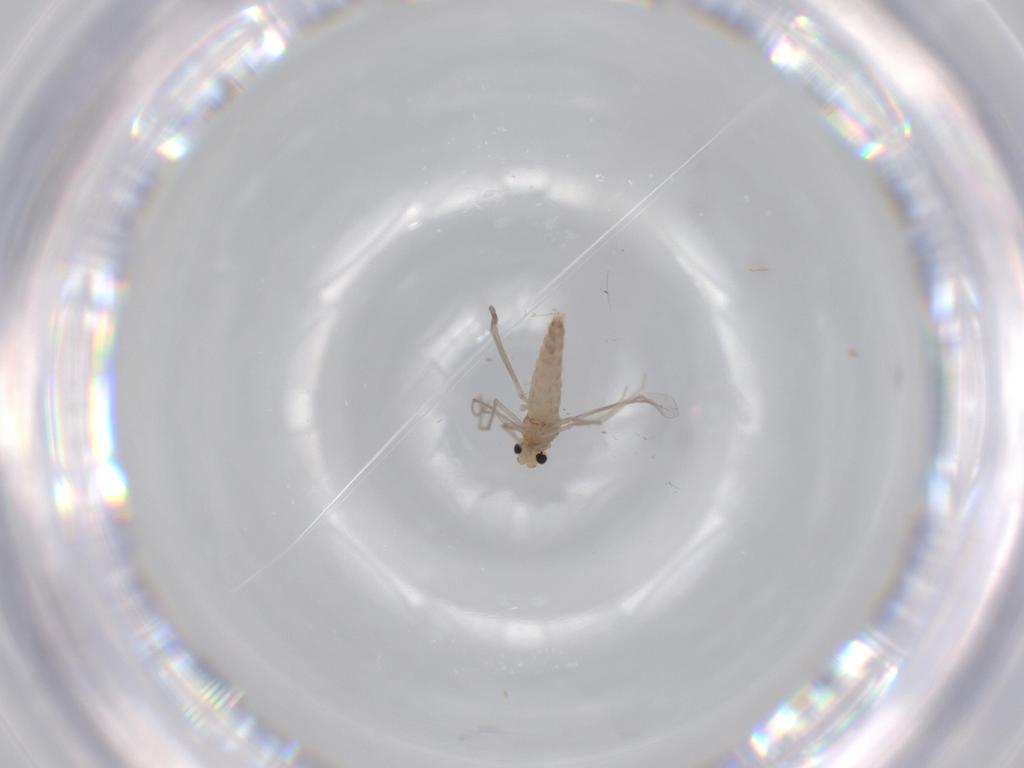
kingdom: Animalia
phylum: Arthropoda
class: Insecta
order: Diptera
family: Chironomidae
